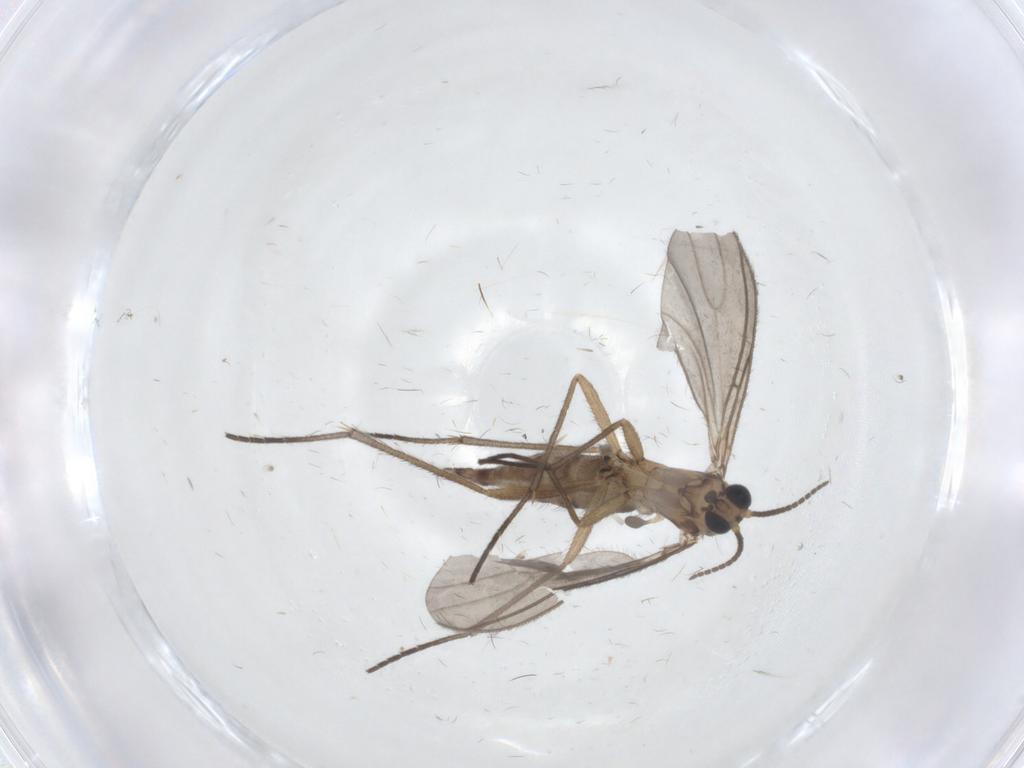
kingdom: Animalia
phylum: Arthropoda
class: Insecta
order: Diptera
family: Sciaridae
